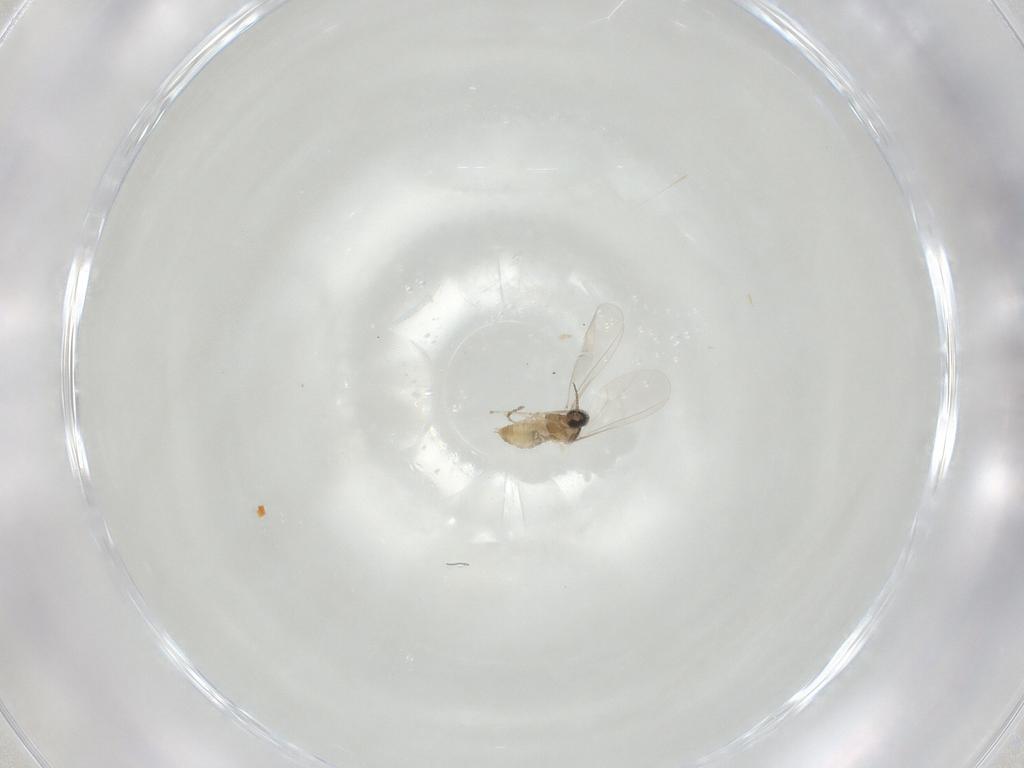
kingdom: Animalia
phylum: Arthropoda
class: Insecta
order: Diptera
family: Cecidomyiidae
